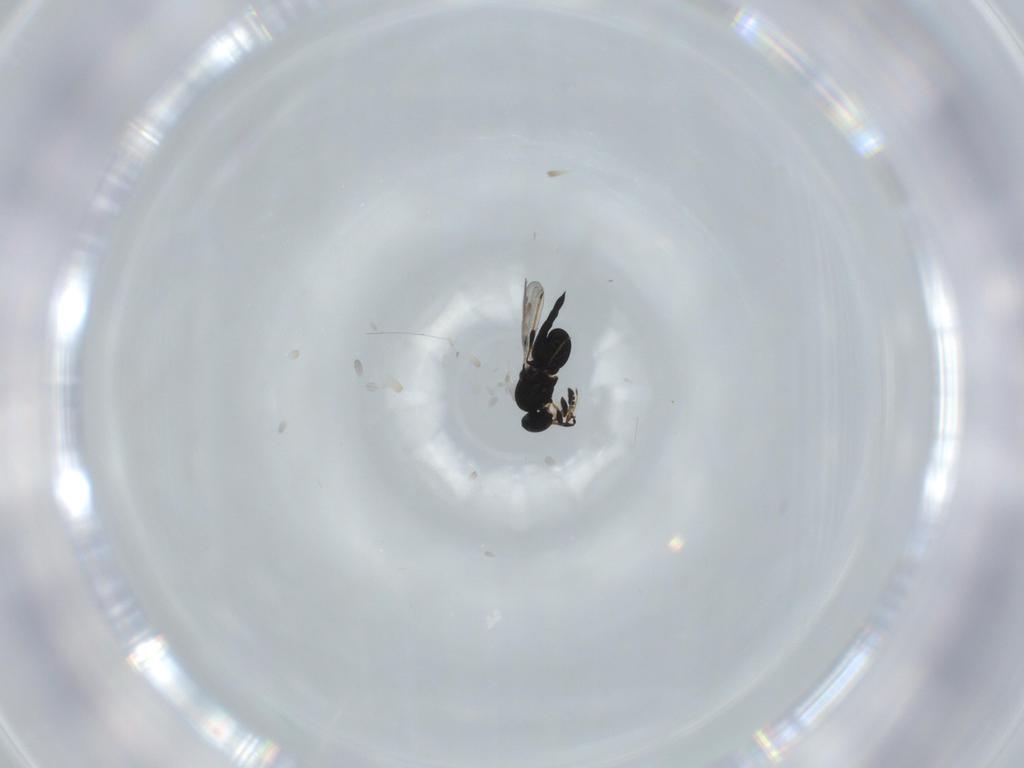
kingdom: Animalia
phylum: Arthropoda
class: Insecta
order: Hymenoptera
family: Platygastridae
